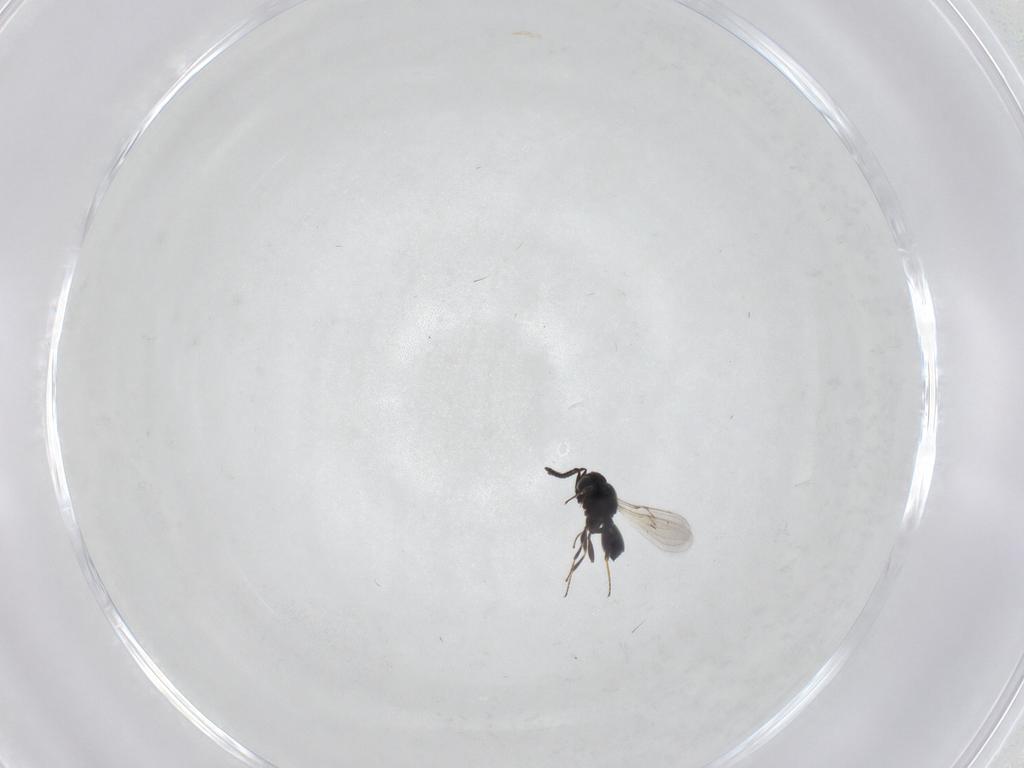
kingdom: Animalia
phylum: Arthropoda
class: Insecta
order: Hymenoptera
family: Scelionidae
